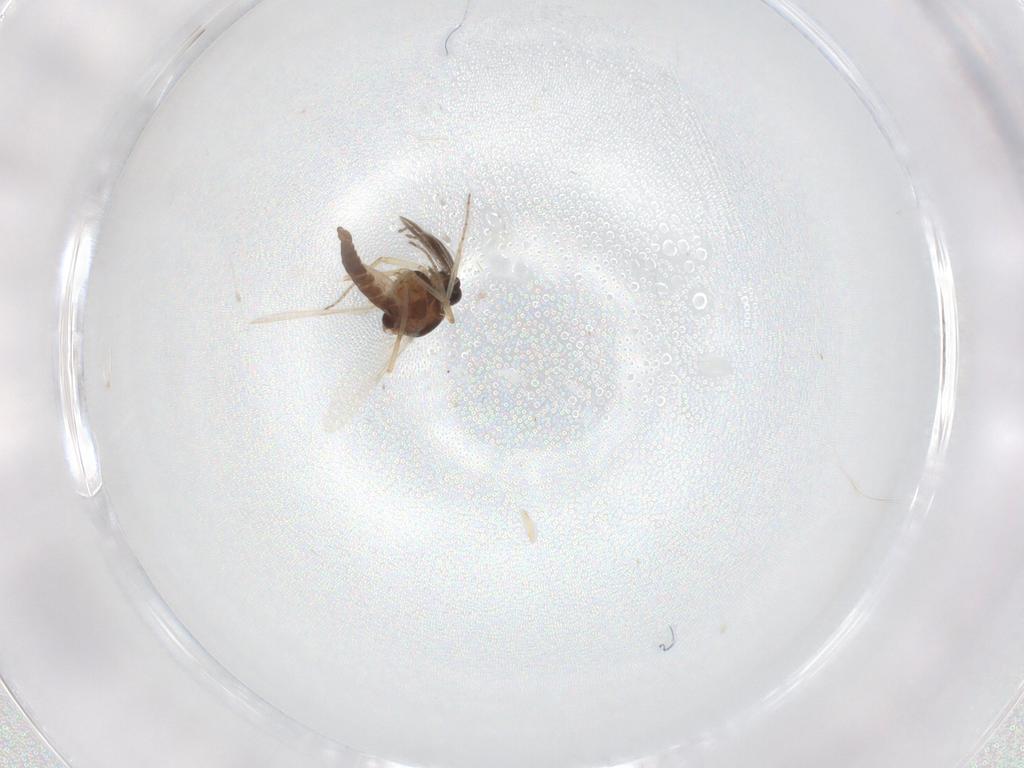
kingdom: Animalia
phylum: Arthropoda
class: Insecta
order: Diptera
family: Ceratopogonidae
